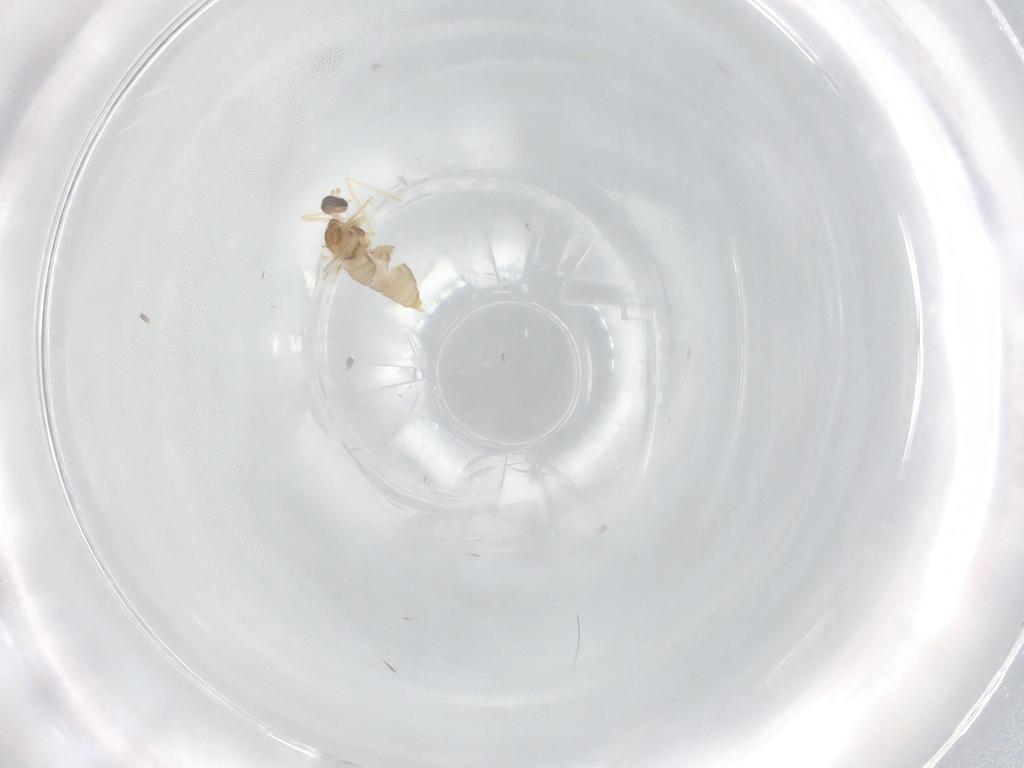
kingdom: Animalia
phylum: Arthropoda
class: Insecta
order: Diptera
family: Cecidomyiidae
